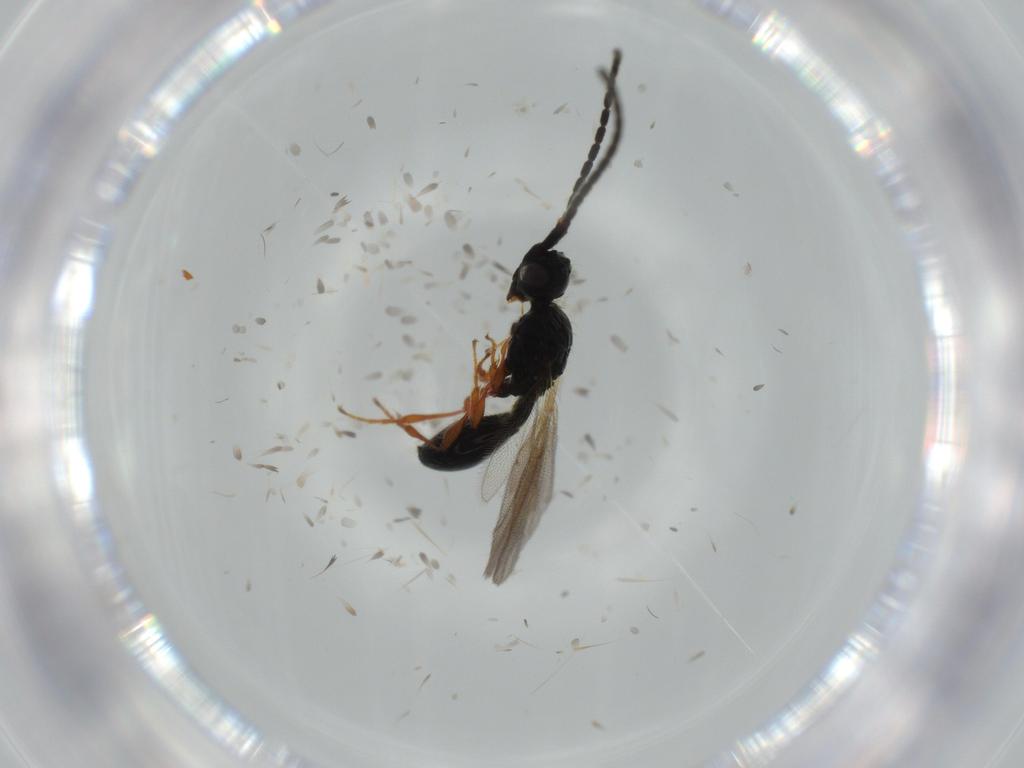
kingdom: Animalia
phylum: Arthropoda
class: Insecta
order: Hymenoptera
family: Diapriidae
